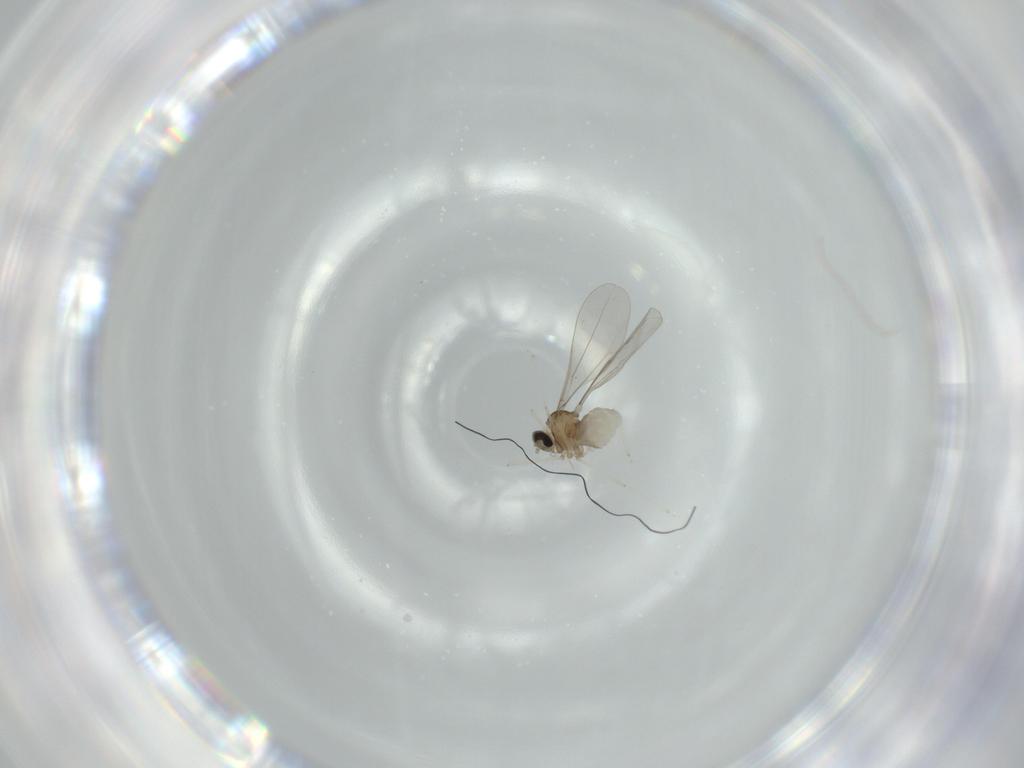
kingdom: Animalia
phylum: Arthropoda
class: Insecta
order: Diptera
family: Cecidomyiidae
